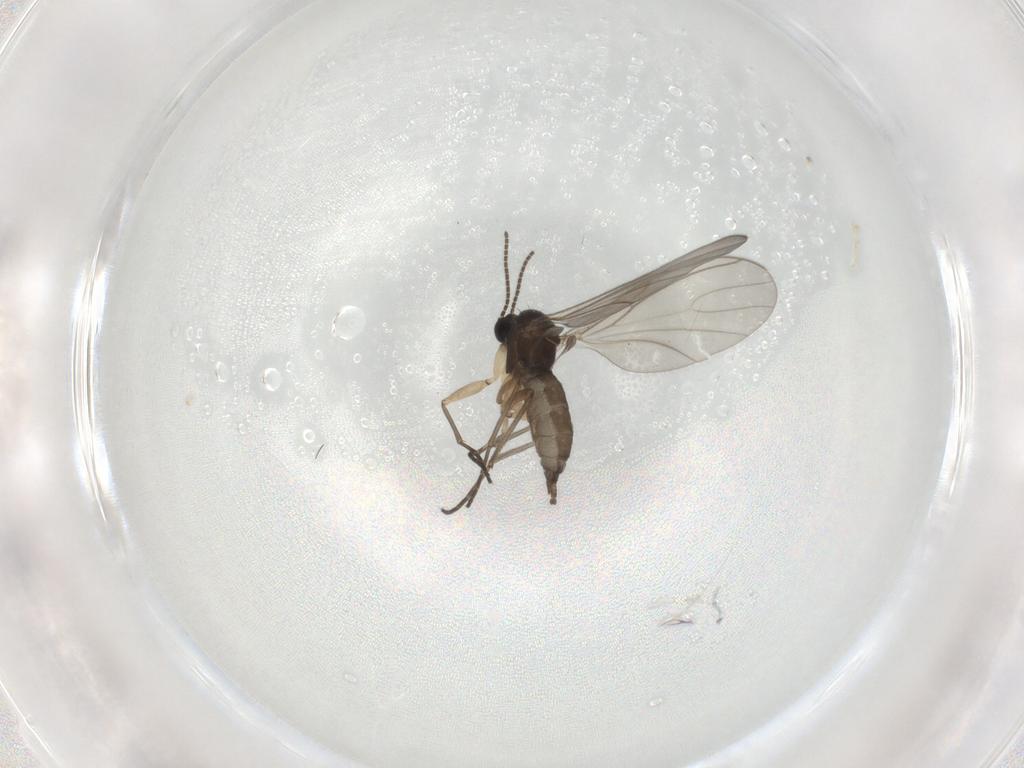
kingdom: Animalia
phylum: Arthropoda
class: Insecta
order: Diptera
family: Sciaridae
